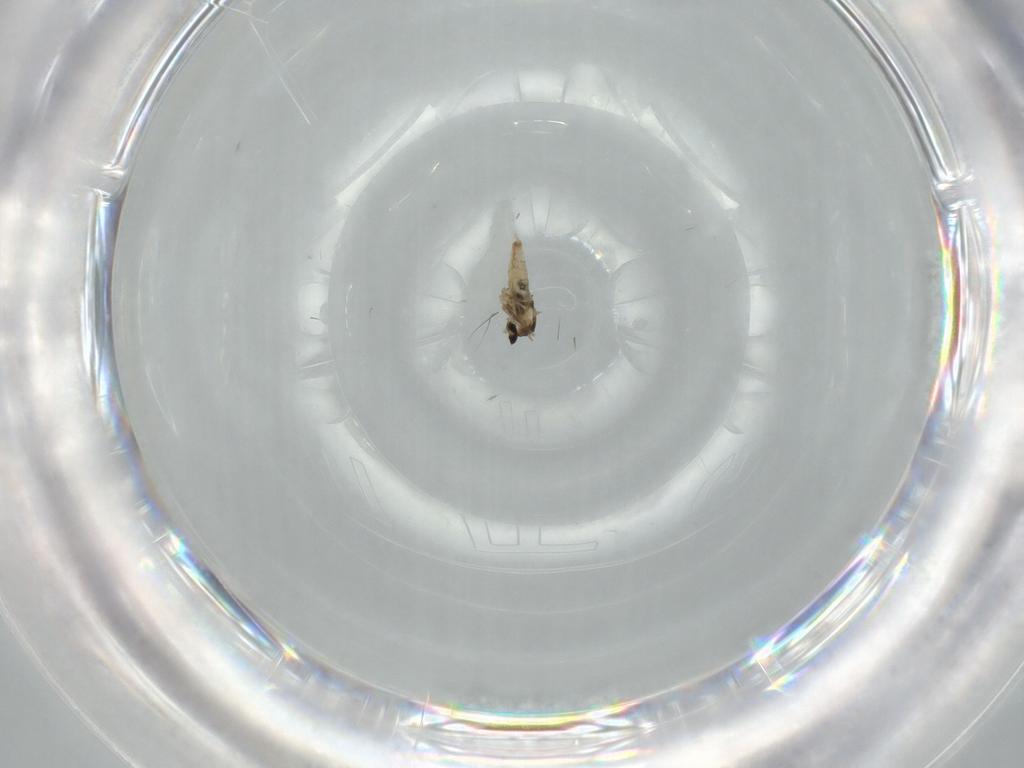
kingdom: Animalia
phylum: Arthropoda
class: Insecta
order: Diptera
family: Cecidomyiidae
